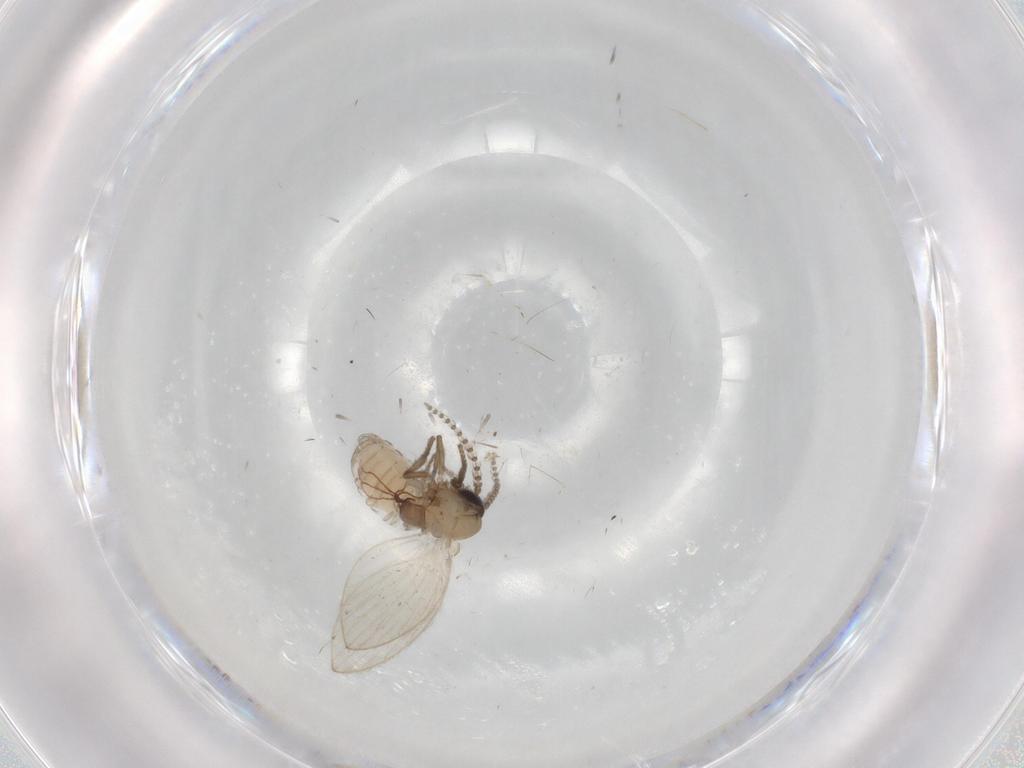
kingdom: Animalia
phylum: Arthropoda
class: Insecta
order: Diptera
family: Psychodidae
